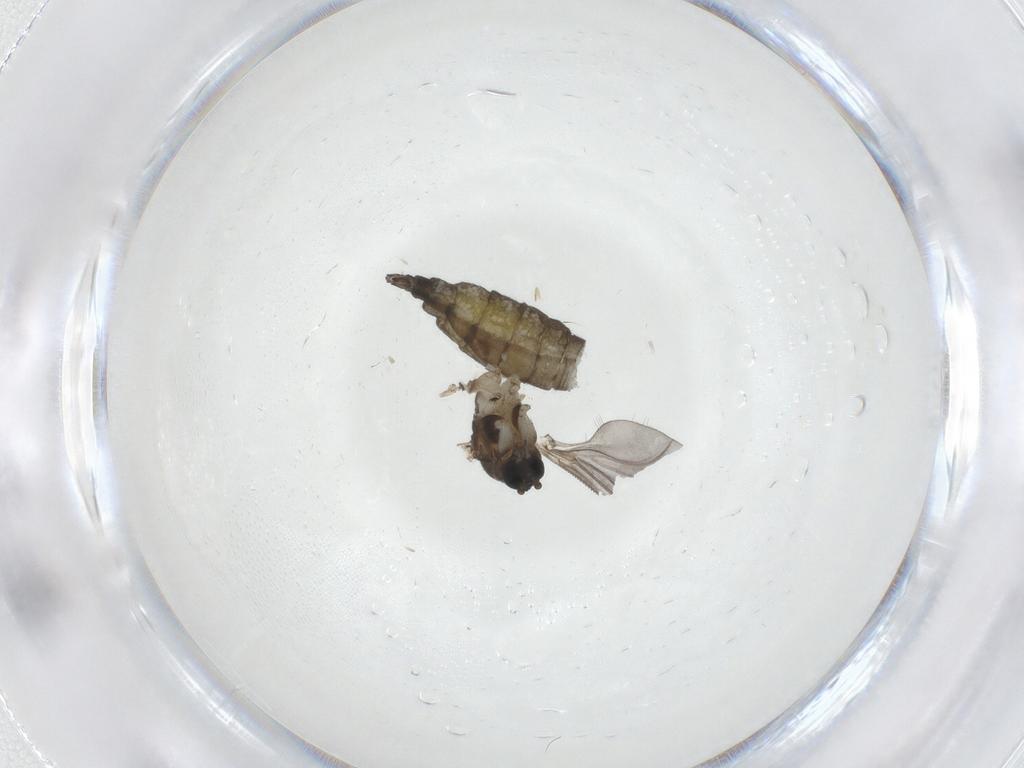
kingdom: Animalia
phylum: Arthropoda
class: Insecta
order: Diptera
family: Sciaridae
